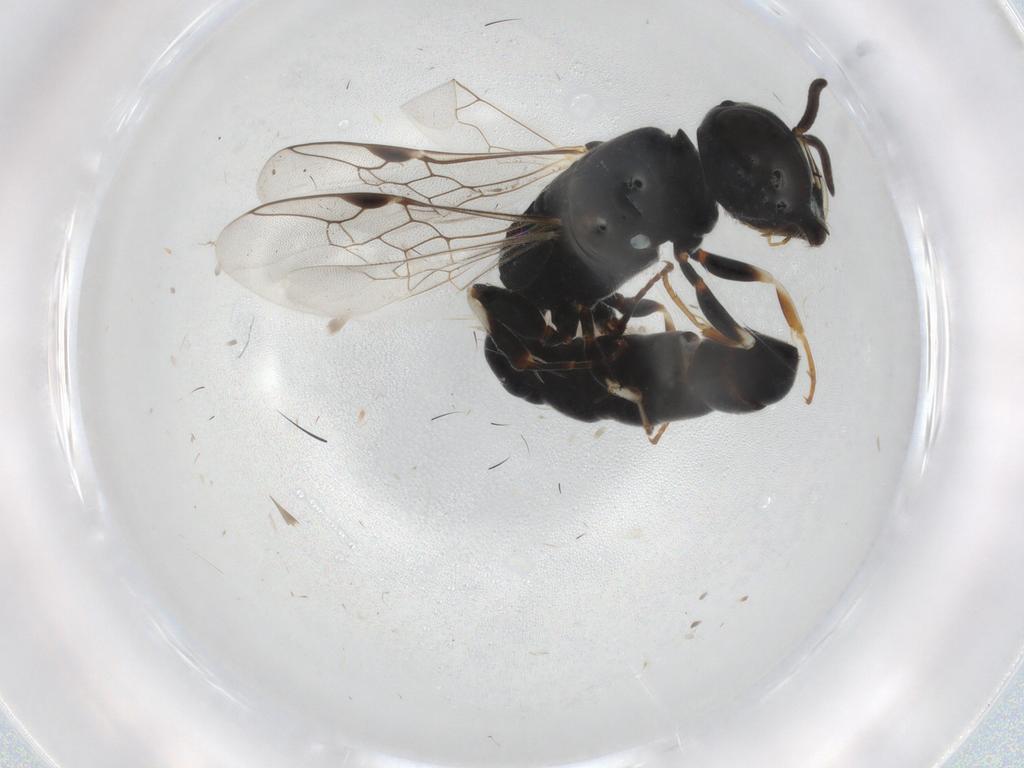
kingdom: Animalia
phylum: Arthropoda
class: Insecta
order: Hymenoptera
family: Pemphredonidae
